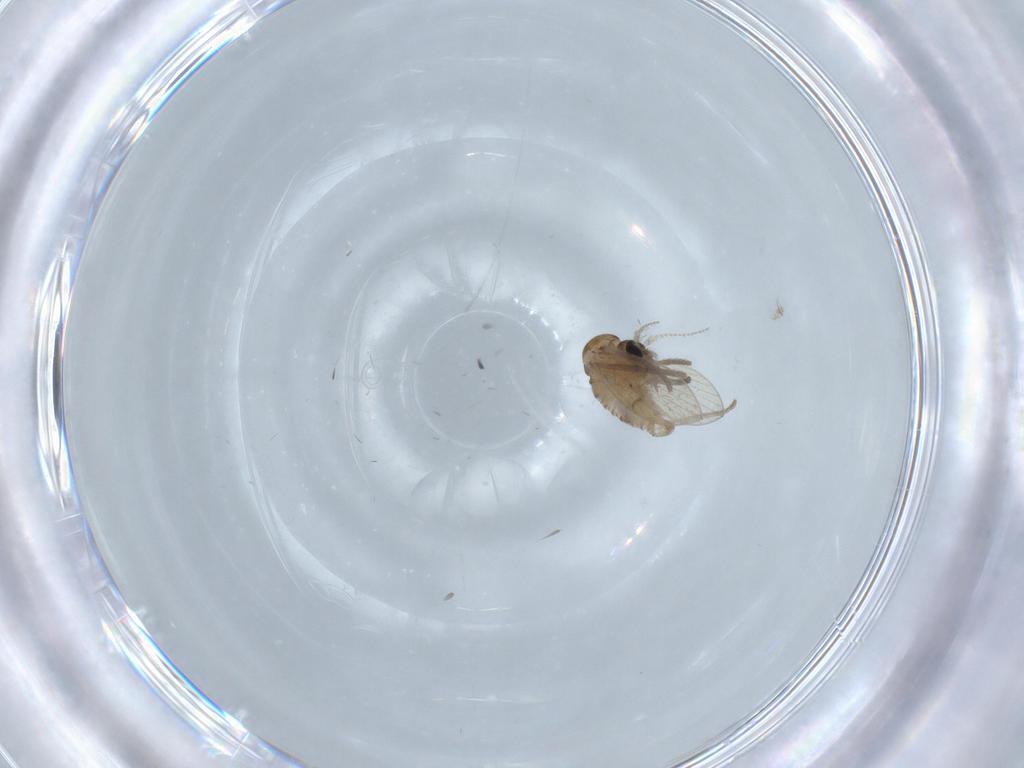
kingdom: Animalia
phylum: Arthropoda
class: Insecta
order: Diptera
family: Psychodidae
